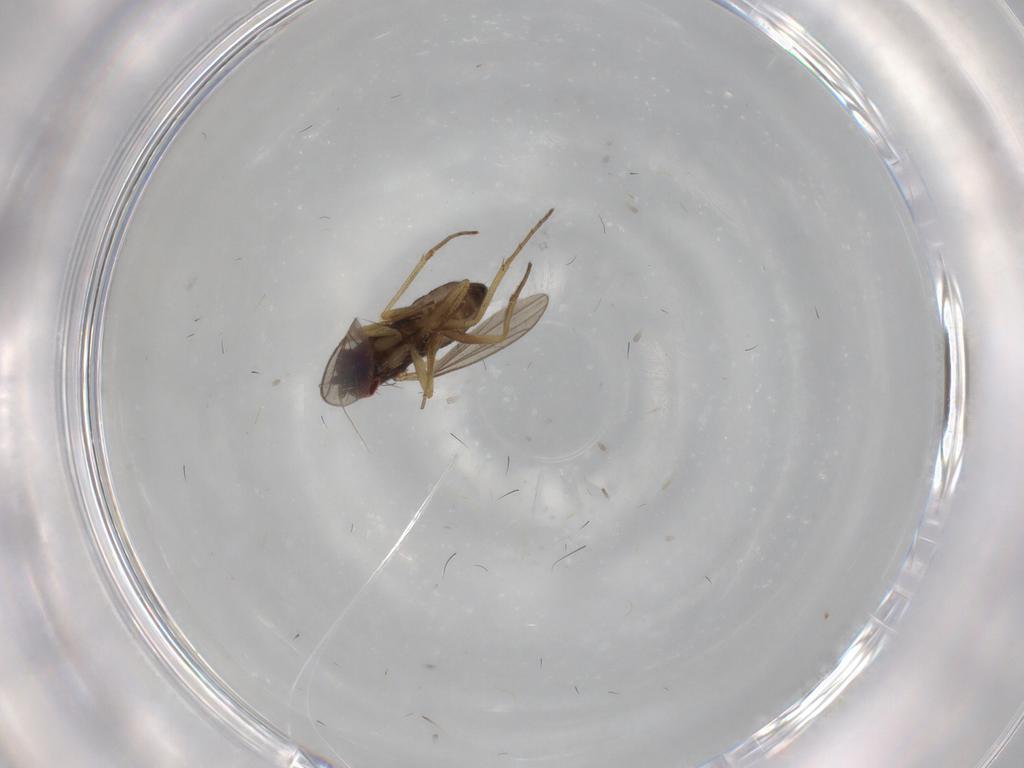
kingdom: Animalia
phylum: Arthropoda
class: Insecta
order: Diptera
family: Dolichopodidae
